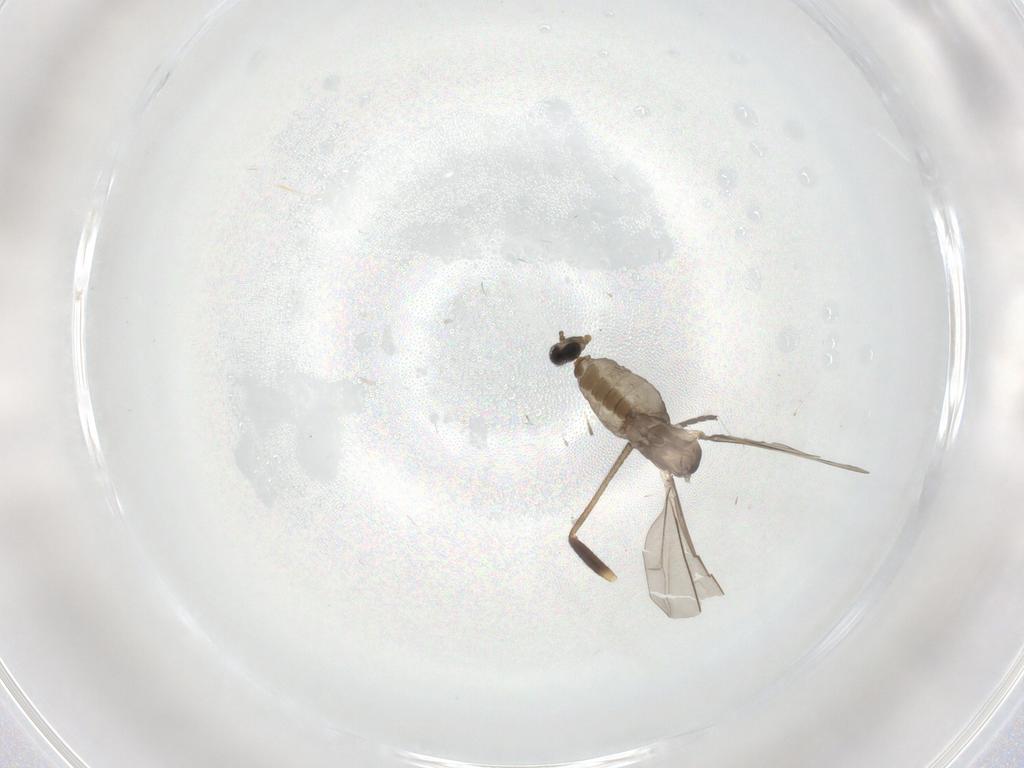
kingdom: Animalia
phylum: Arthropoda
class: Insecta
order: Diptera
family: Cecidomyiidae
